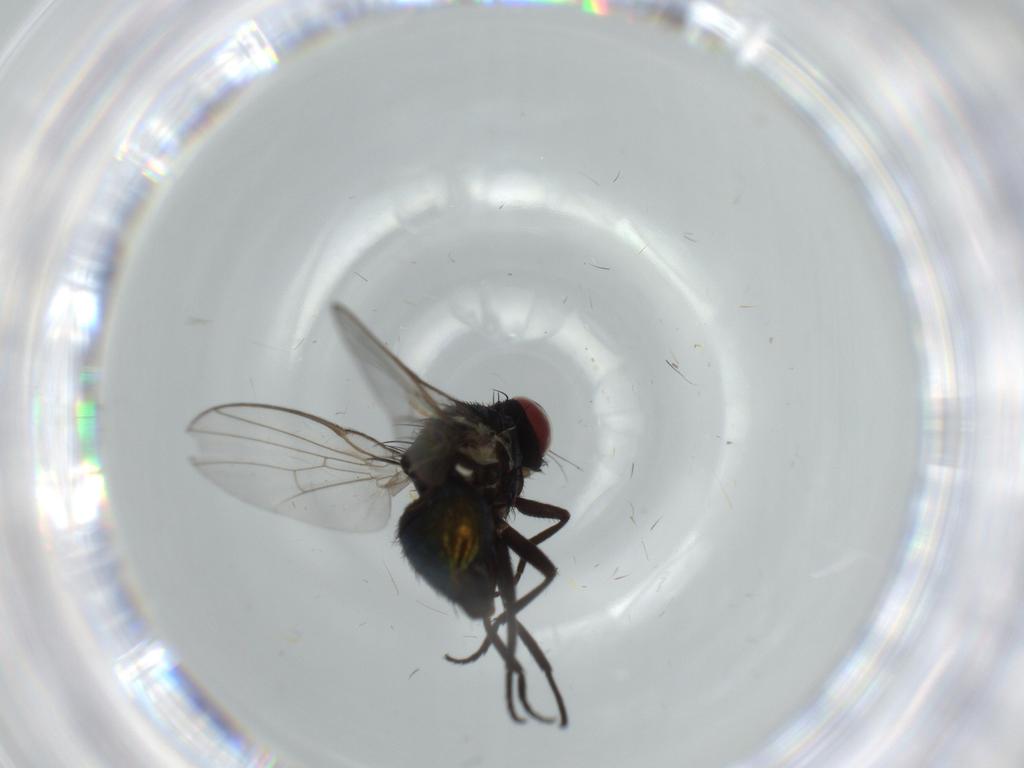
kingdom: Animalia
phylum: Arthropoda
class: Insecta
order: Diptera
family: Agromyzidae
